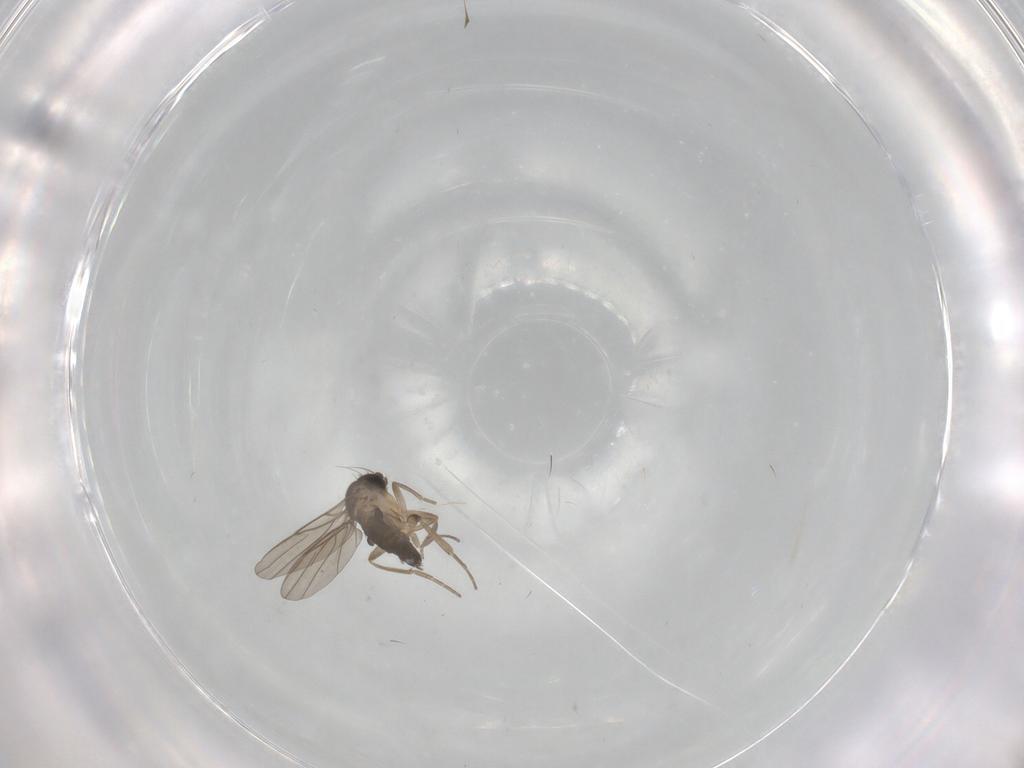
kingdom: Animalia
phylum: Arthropoda
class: Insecta
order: Diptera
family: Phoridae
